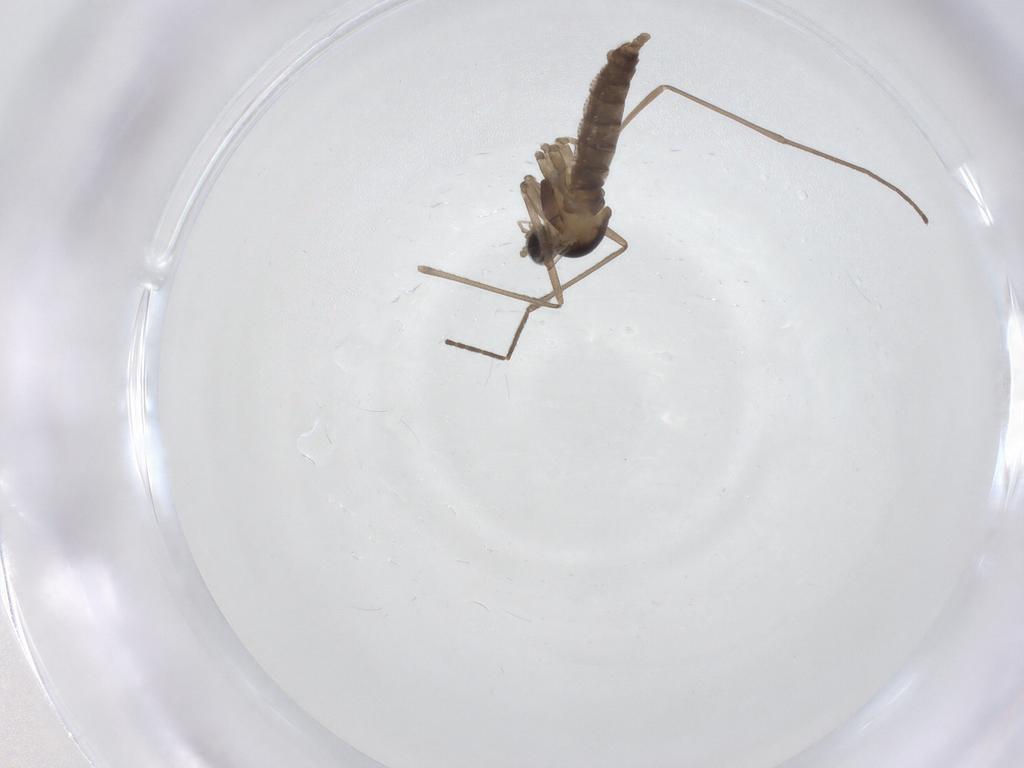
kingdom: Animalia
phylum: Arthropoda
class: Insecta
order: Diptera
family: Cecidomyiidae
